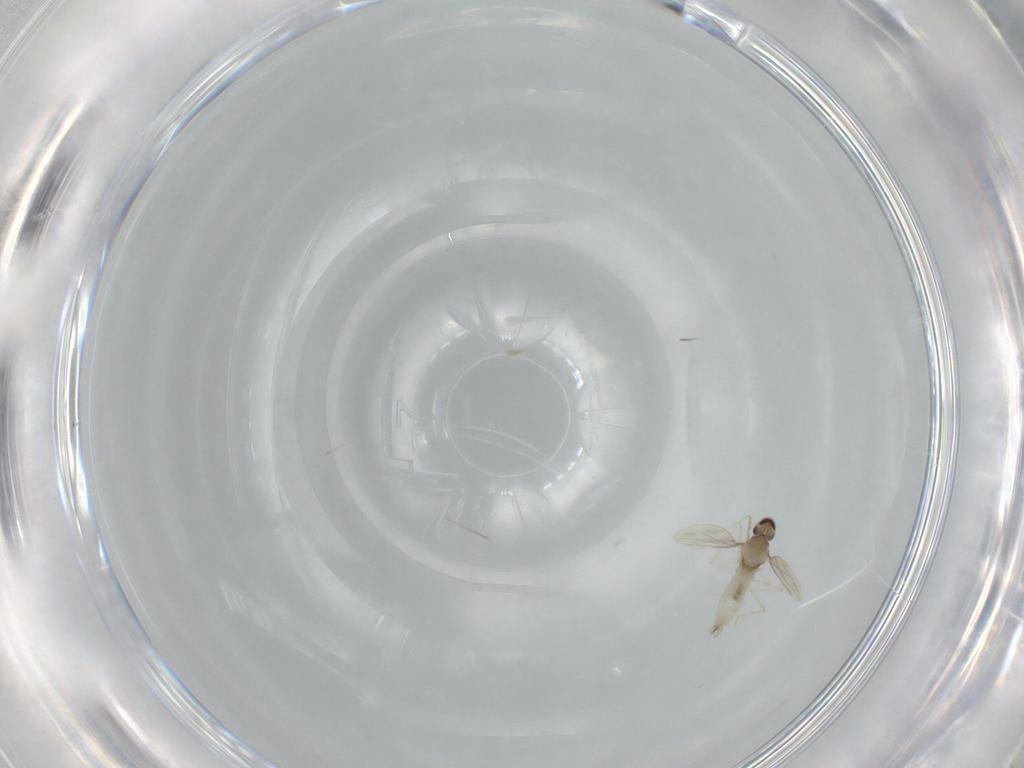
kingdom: Animalia
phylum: Arthropoda
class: Insecta
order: Diptera
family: Cecidomyiidae
